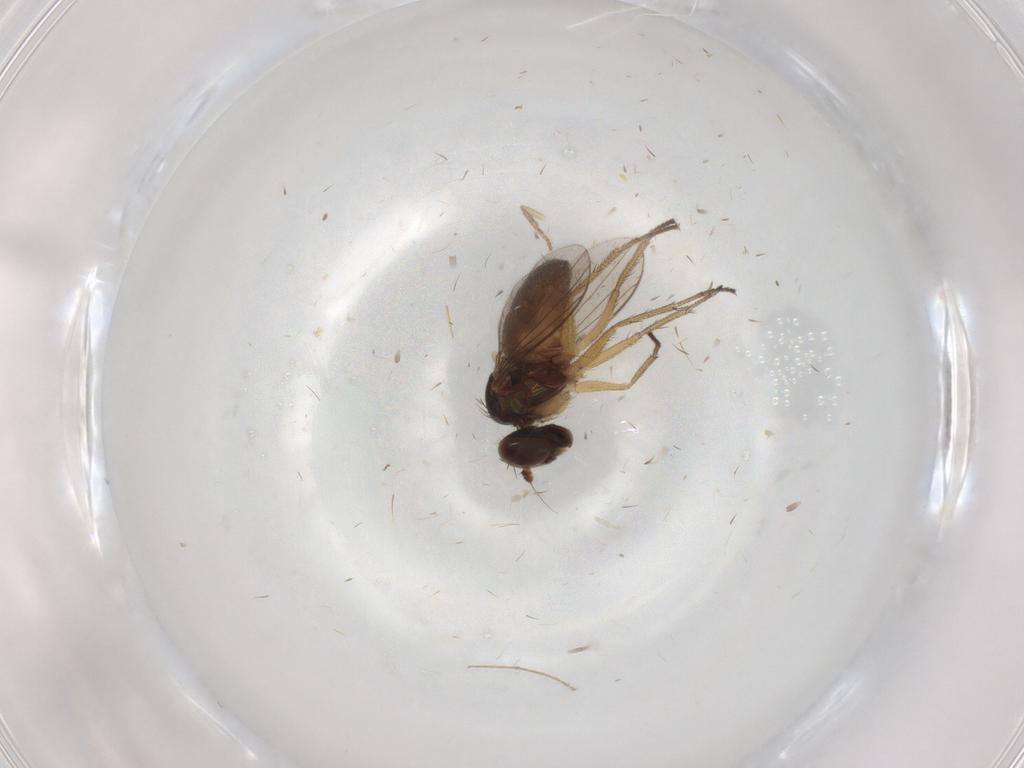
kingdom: Animalia
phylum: Arthropoda
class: Insecta
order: Diptera
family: Chironomidae
